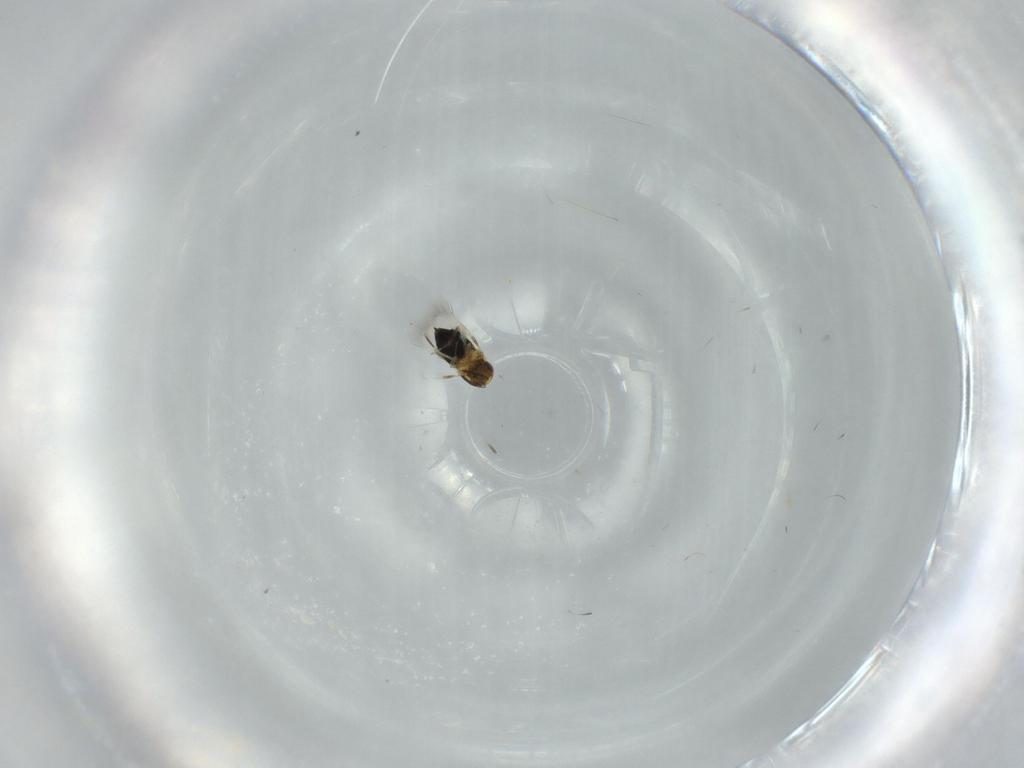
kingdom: Animalia
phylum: Arthropoda
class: Insecta
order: Hymenoptera
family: Signiphoridae
